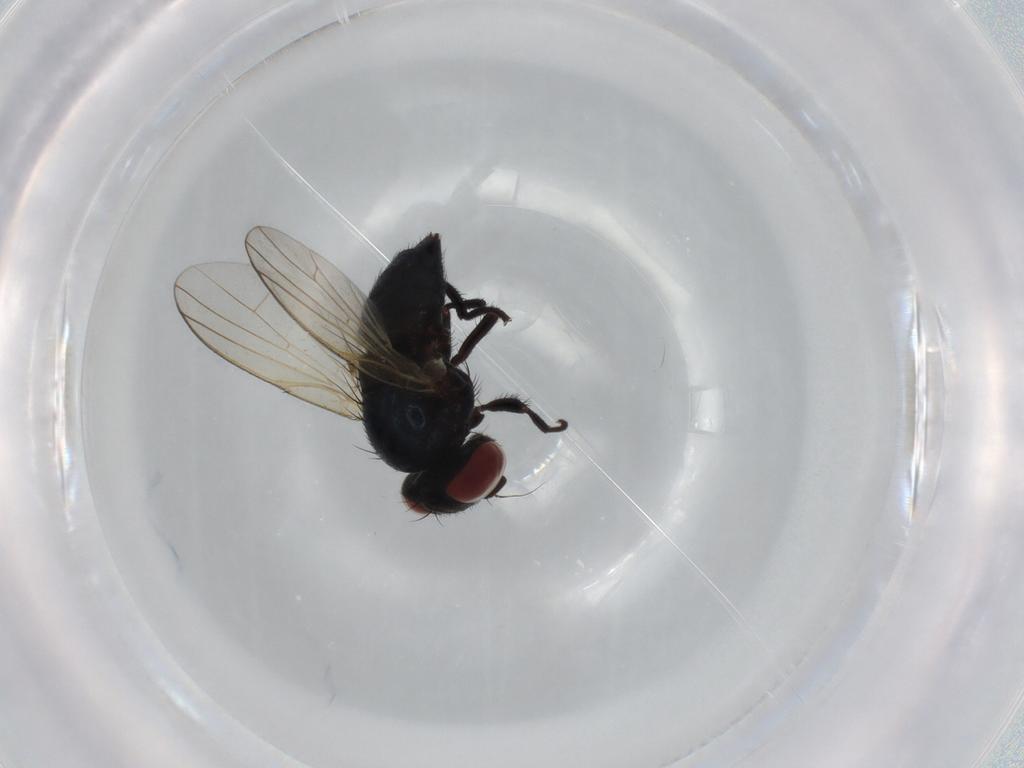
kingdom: Animalia
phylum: Arthropoda
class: Insecta
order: Diptera
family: Lonchaeidae
